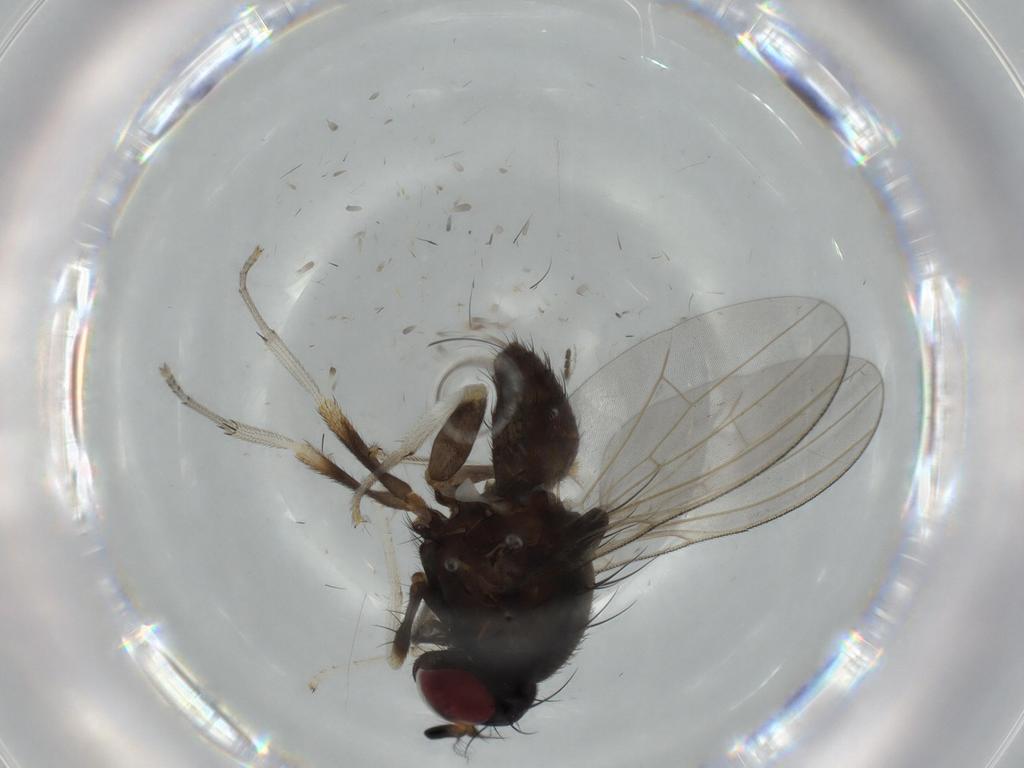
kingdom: Animalia
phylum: Arthropoda
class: Insecta
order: Diptera
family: Lauxaniidae
